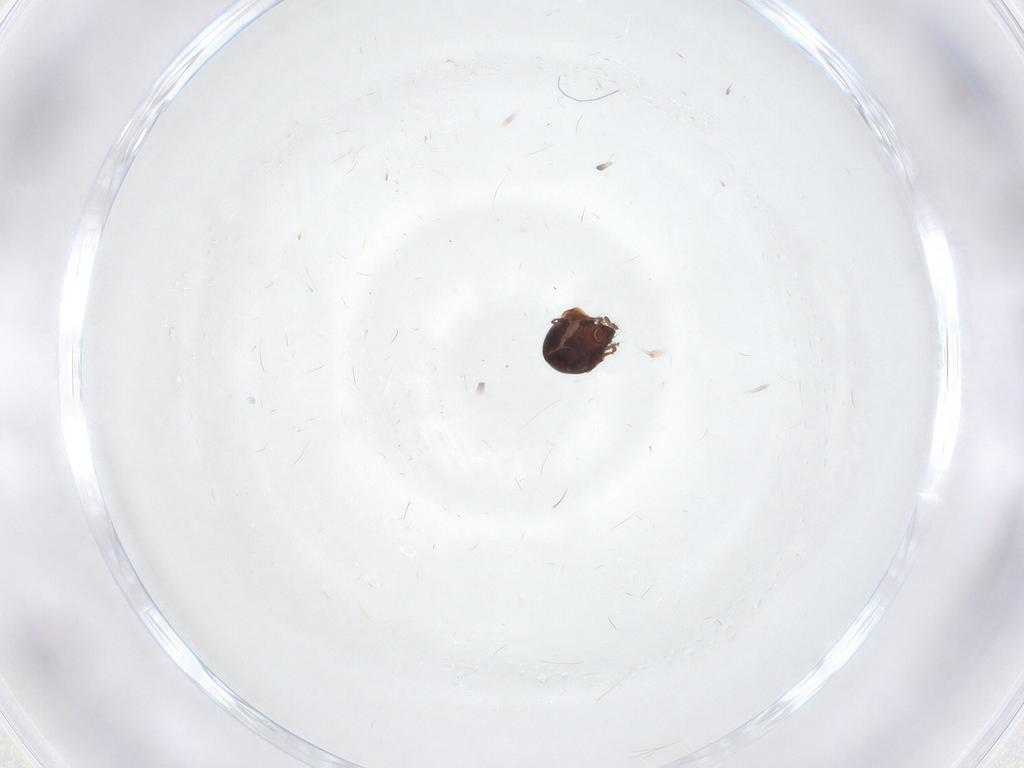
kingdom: Animalia
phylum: Arthropoda
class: Arachnida
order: Sarcoptiformes
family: Ceratozetidae
